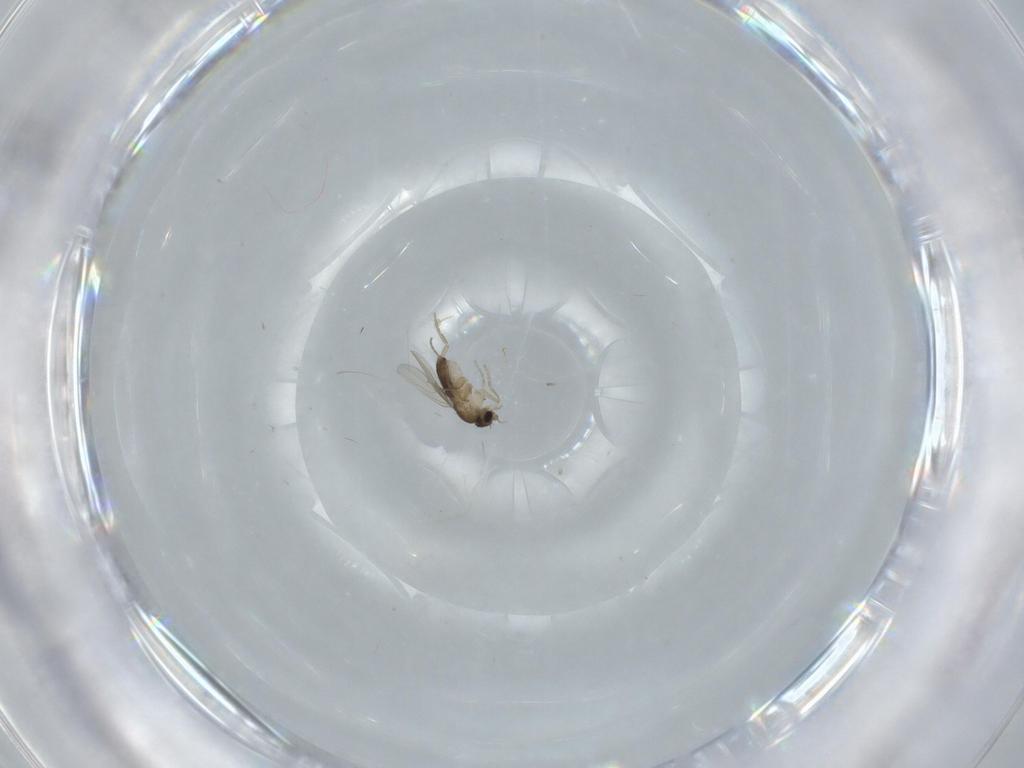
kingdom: Animalia
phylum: Arthropoda
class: Insecta
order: Diptera
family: Phoridae
